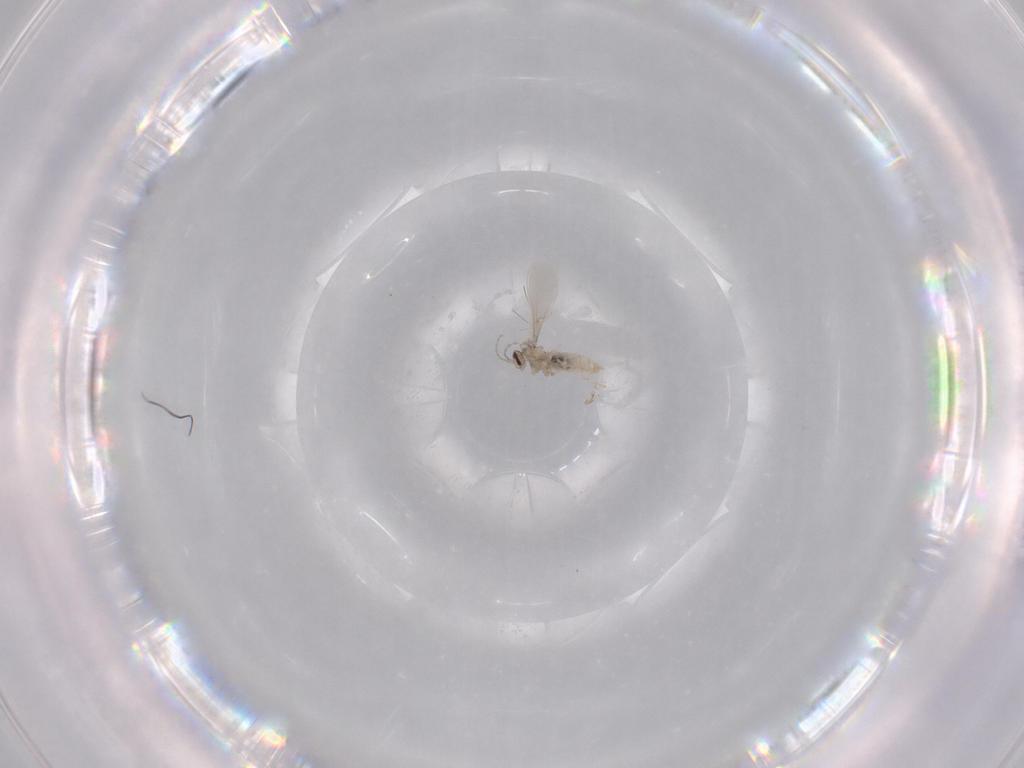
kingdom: Animalia
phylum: Arthropoda
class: Insecta
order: Diptera
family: Cecidomyiidae
